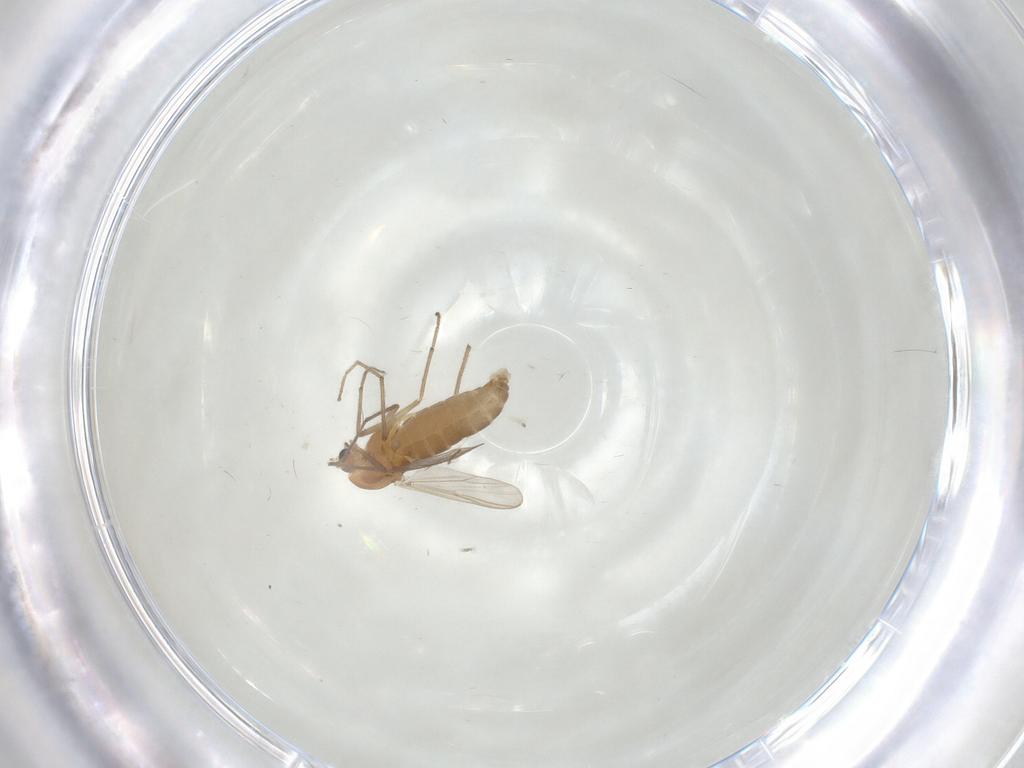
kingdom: Animalia
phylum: Arthropoda
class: Insecta
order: Diptera
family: Chironomidae
